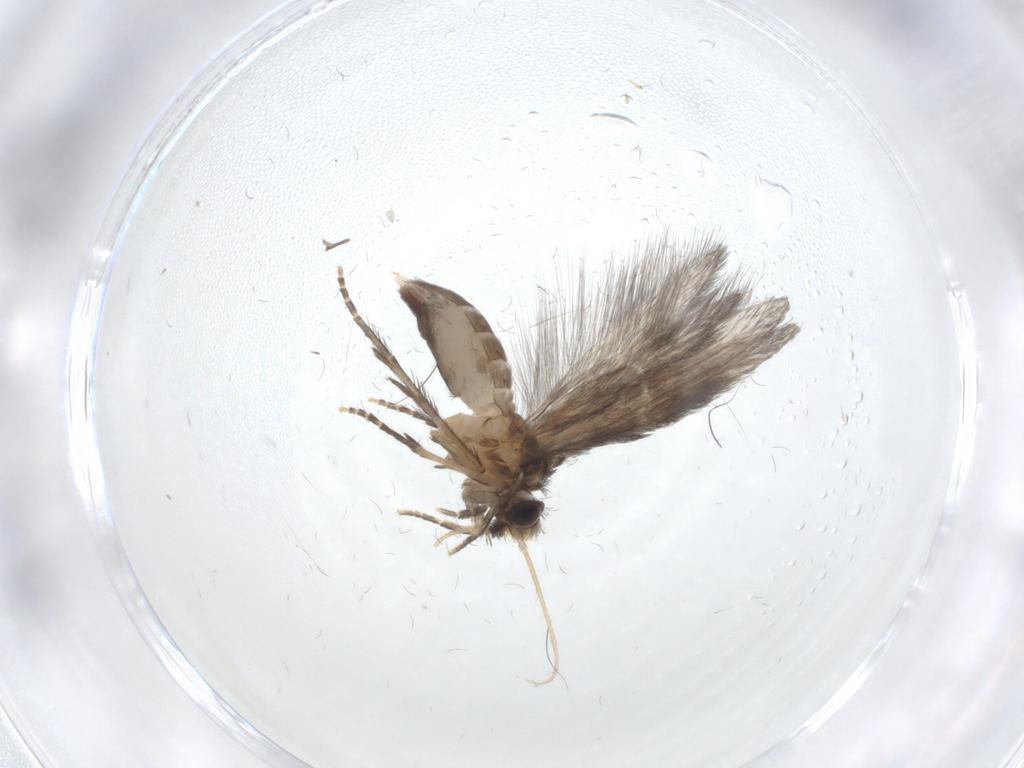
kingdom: Animalia
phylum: Arthropoda
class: Insecta
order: Trichoptera
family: Hydroptilidae
